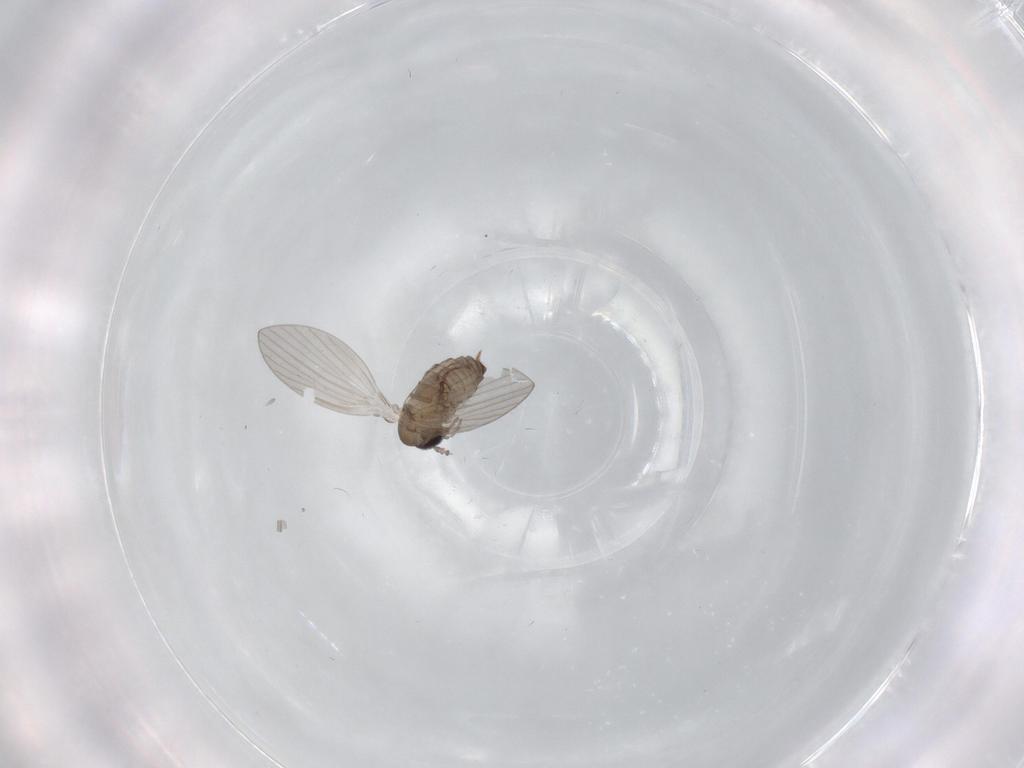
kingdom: Animalia
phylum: Arthropoda
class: Insecta
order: Diptera
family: Psychodidae
